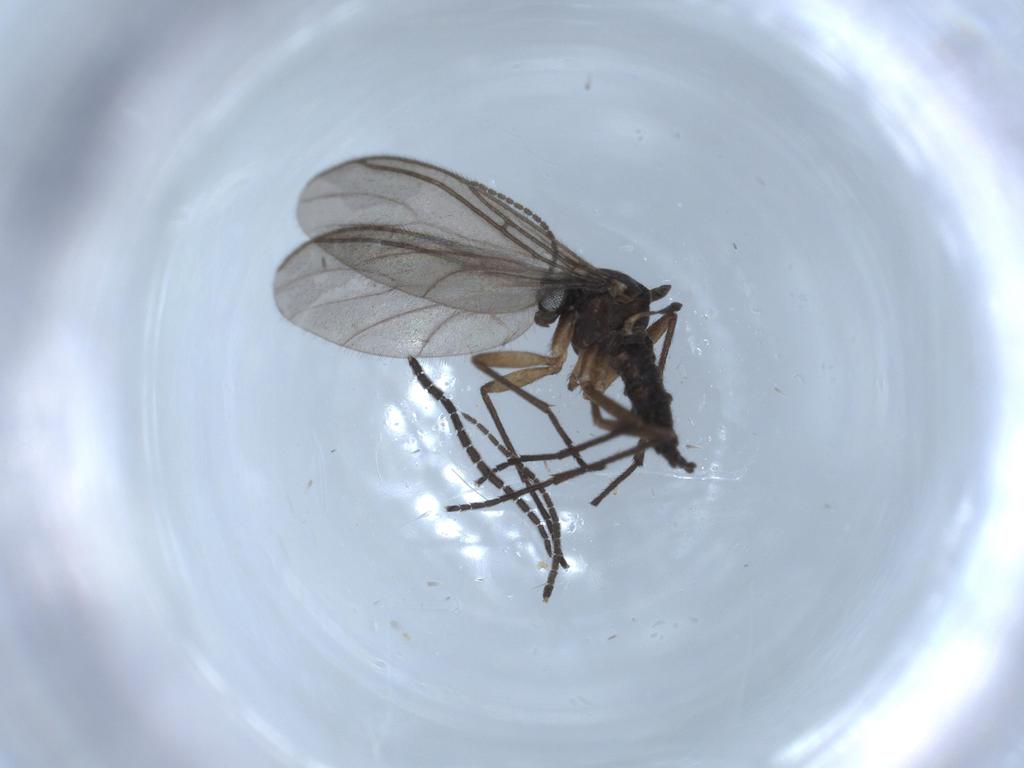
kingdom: Animalia
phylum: Arthropoda
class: Insecta
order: Diptera
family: Sciaridae
